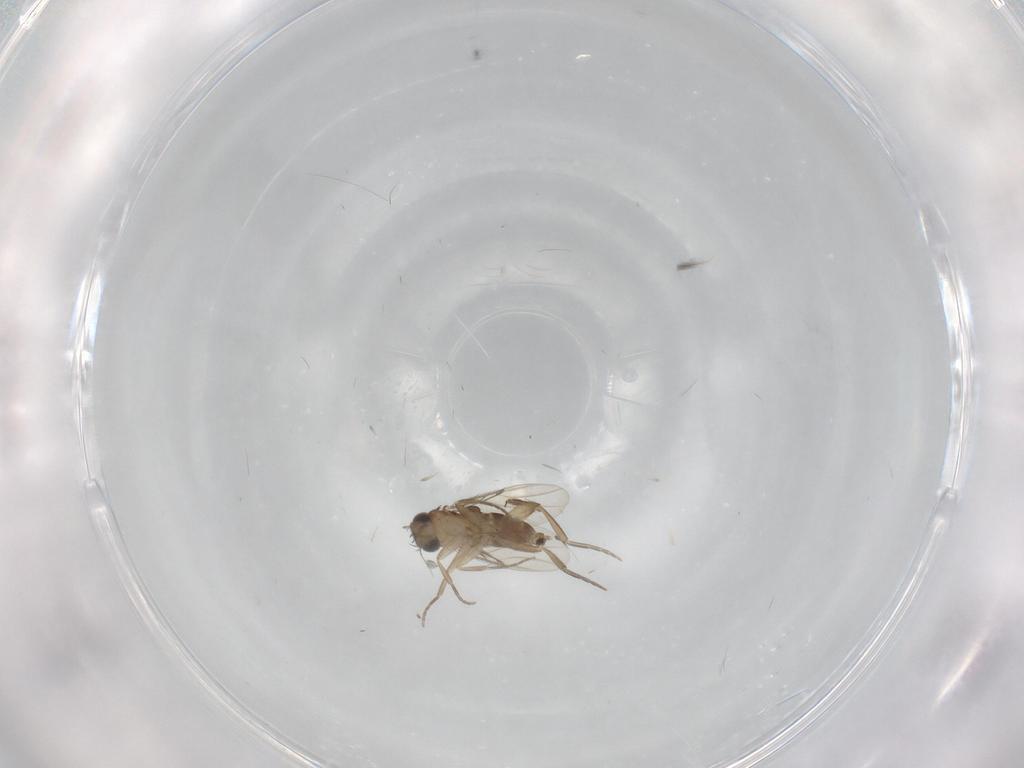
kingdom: Animalia
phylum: Arthropoda
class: Insecta
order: Diptera
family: Phoridae
